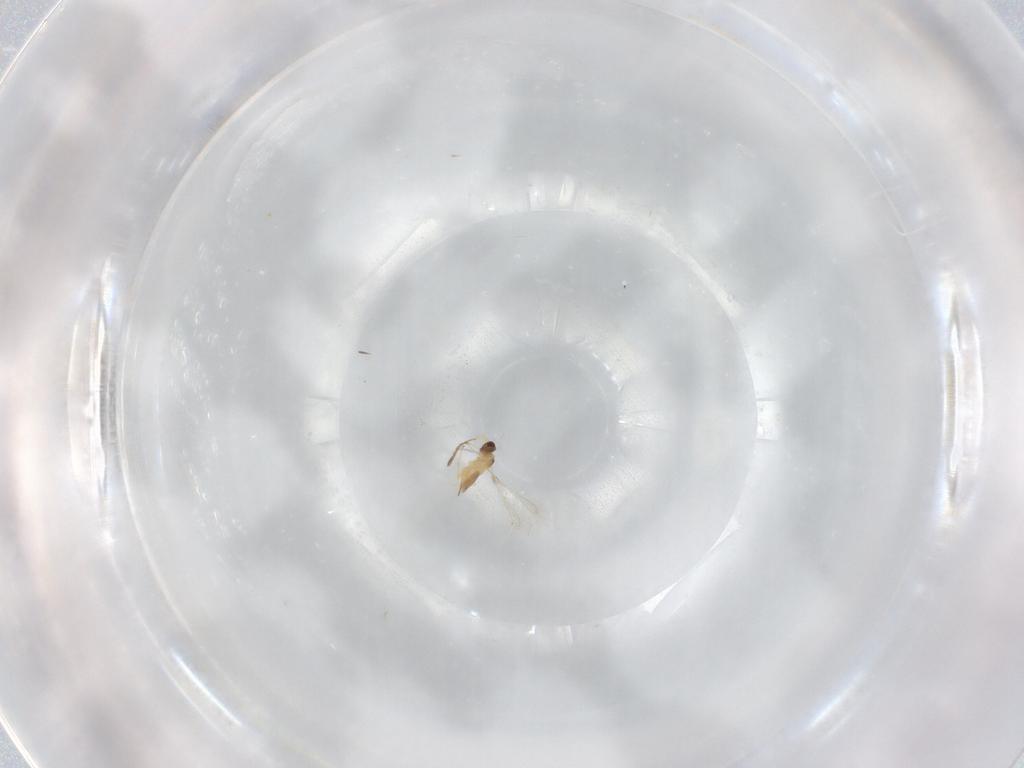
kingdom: Animalia
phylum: Arthropoda
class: Insecta
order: Hymenoptera
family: Mymaridae
